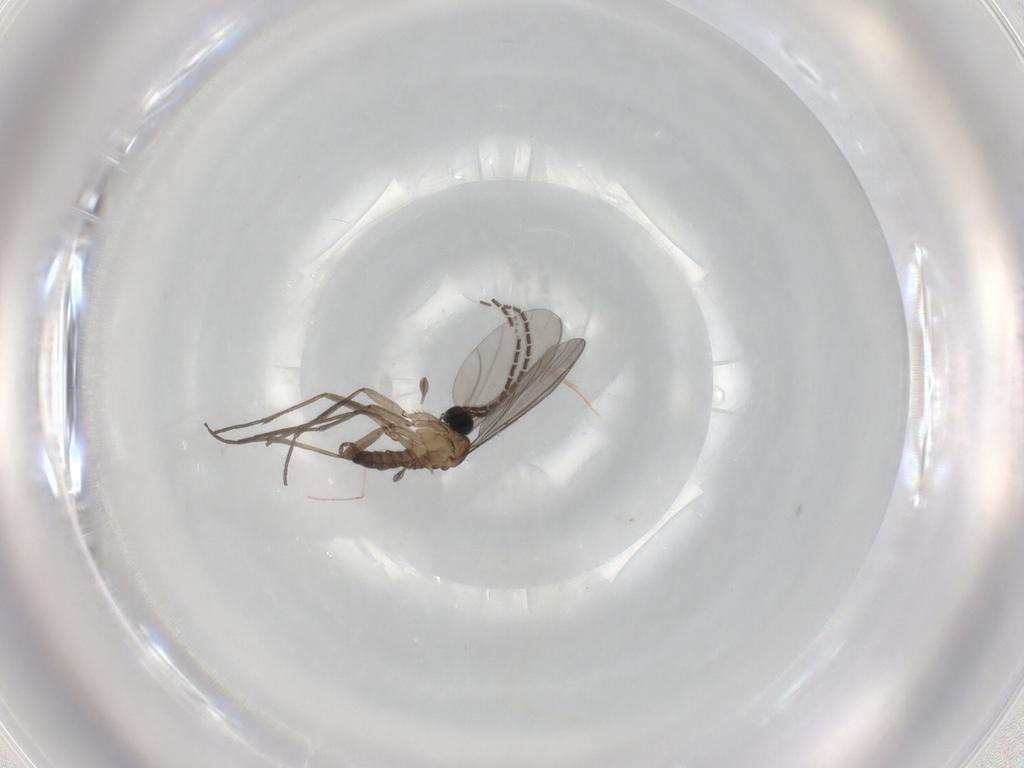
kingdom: Animalia
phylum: Arthropoda
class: Insecta
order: Diptera
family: Sciaridae
